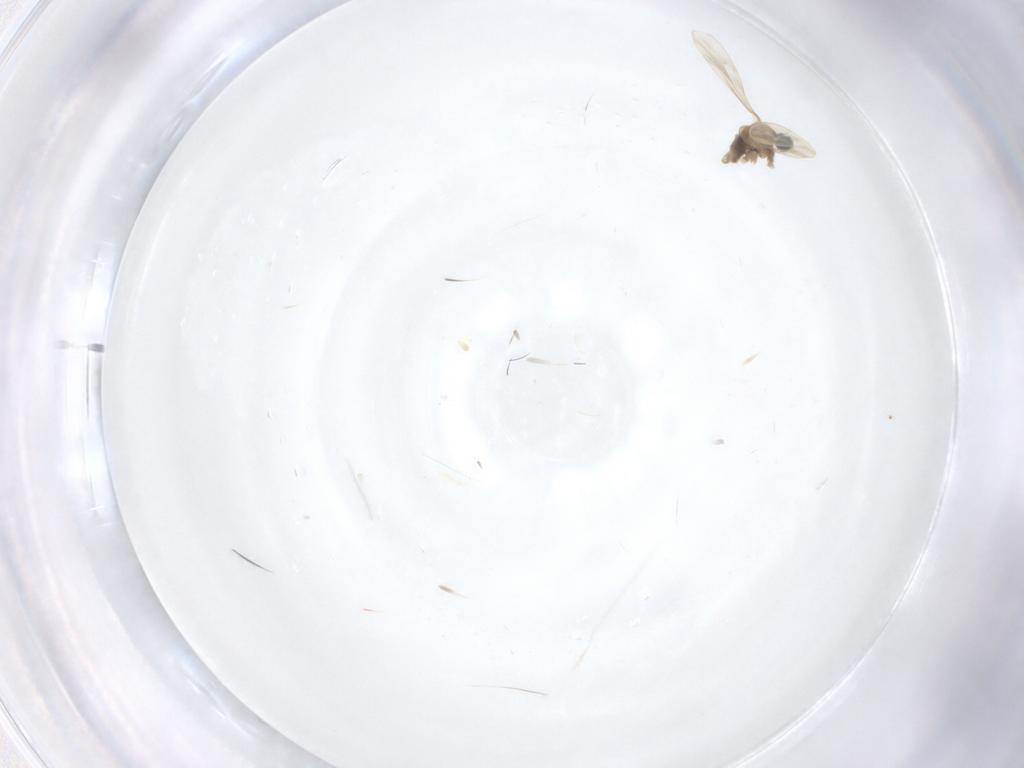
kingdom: Animalia
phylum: Arthropoda
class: Insecta
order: Diptera
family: Cecidomyiidae
